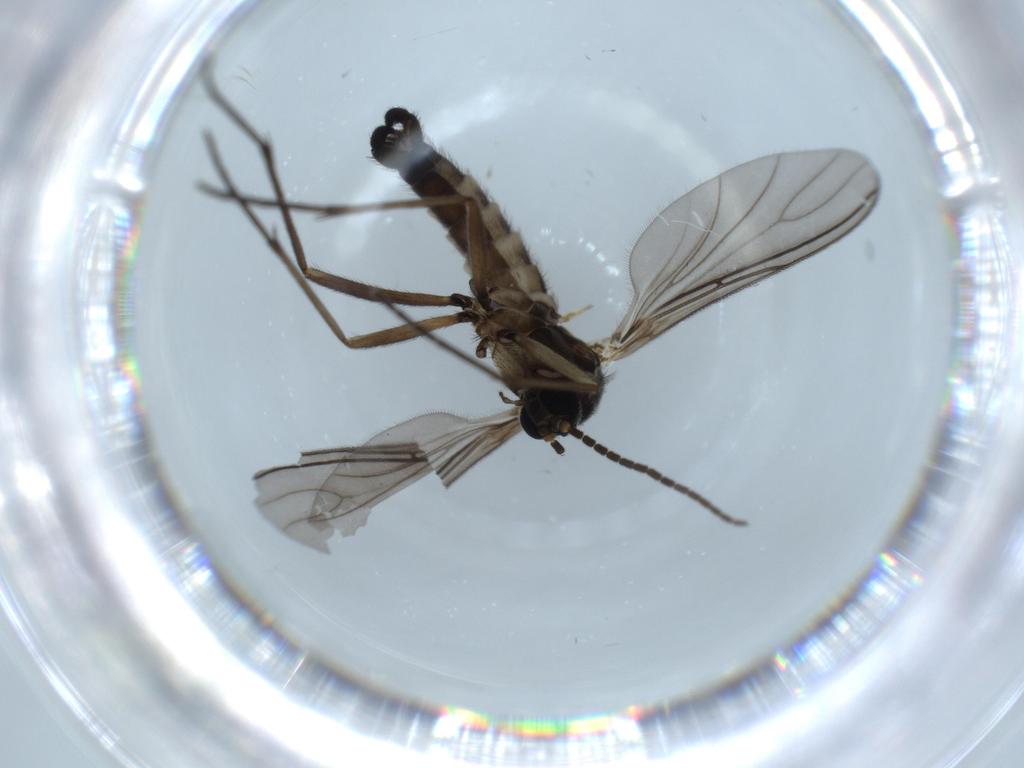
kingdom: Animalia
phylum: Arthropoda
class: Insecta
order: Diptera
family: Sciaridae
